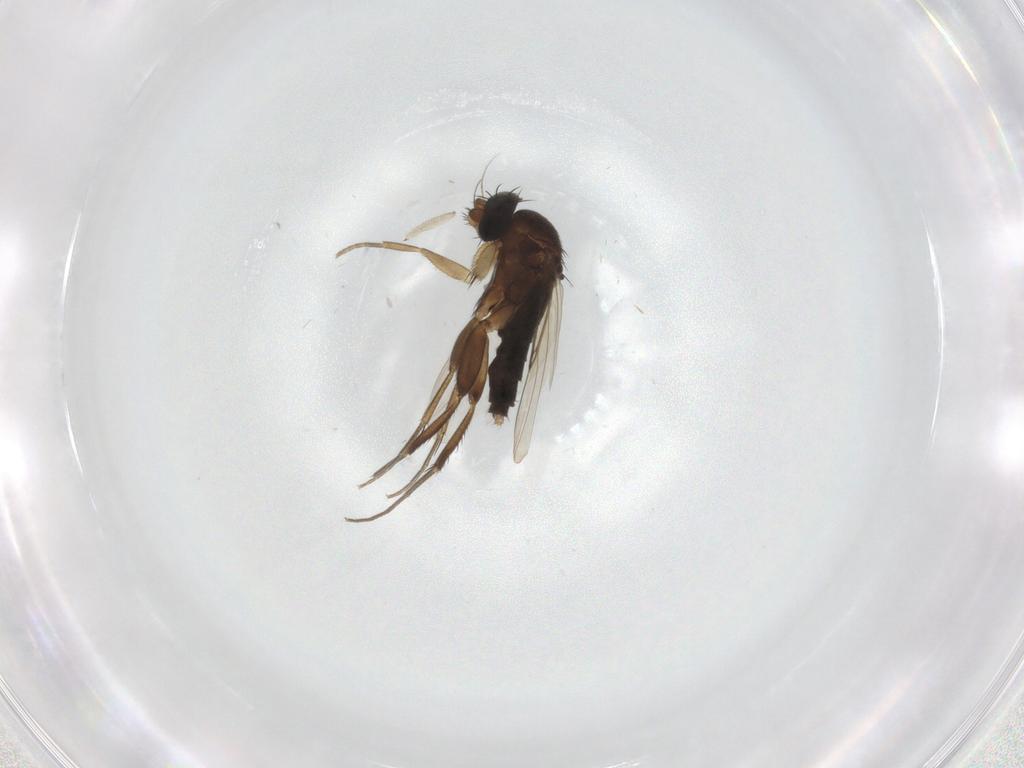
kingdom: Animalia
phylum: Arthropoda
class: Insecta
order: Diptera
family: Phoridae
